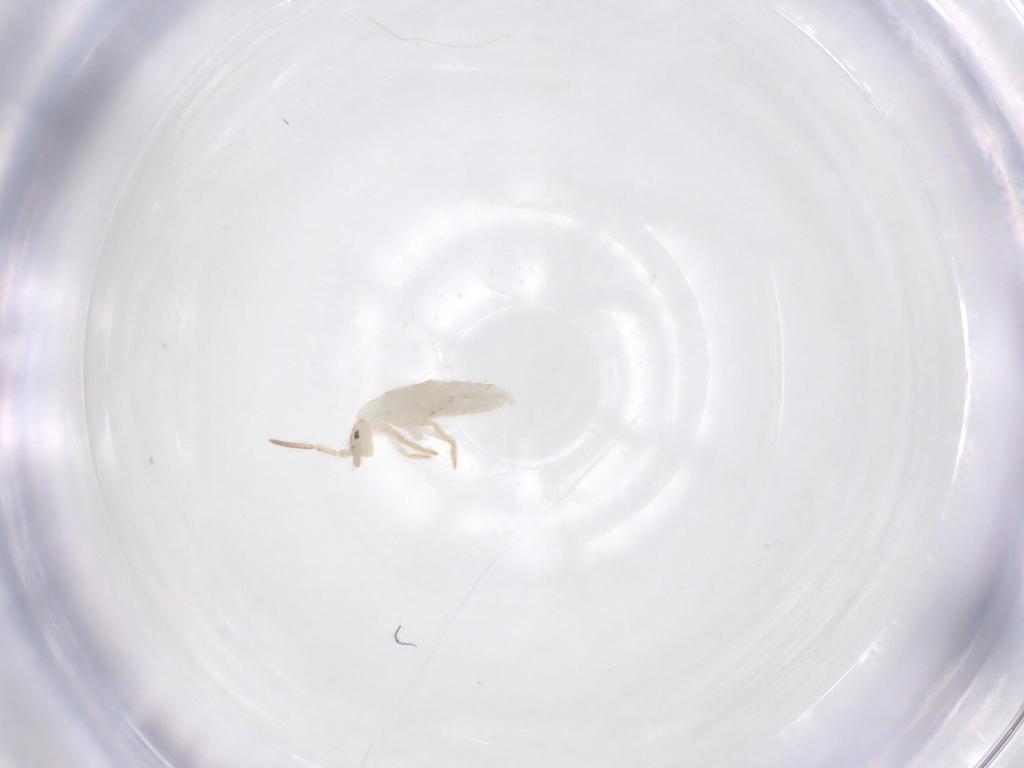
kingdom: Animalia
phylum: Arthropoda
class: Collembola
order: Entomobryomorpha
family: Entomobryidae
